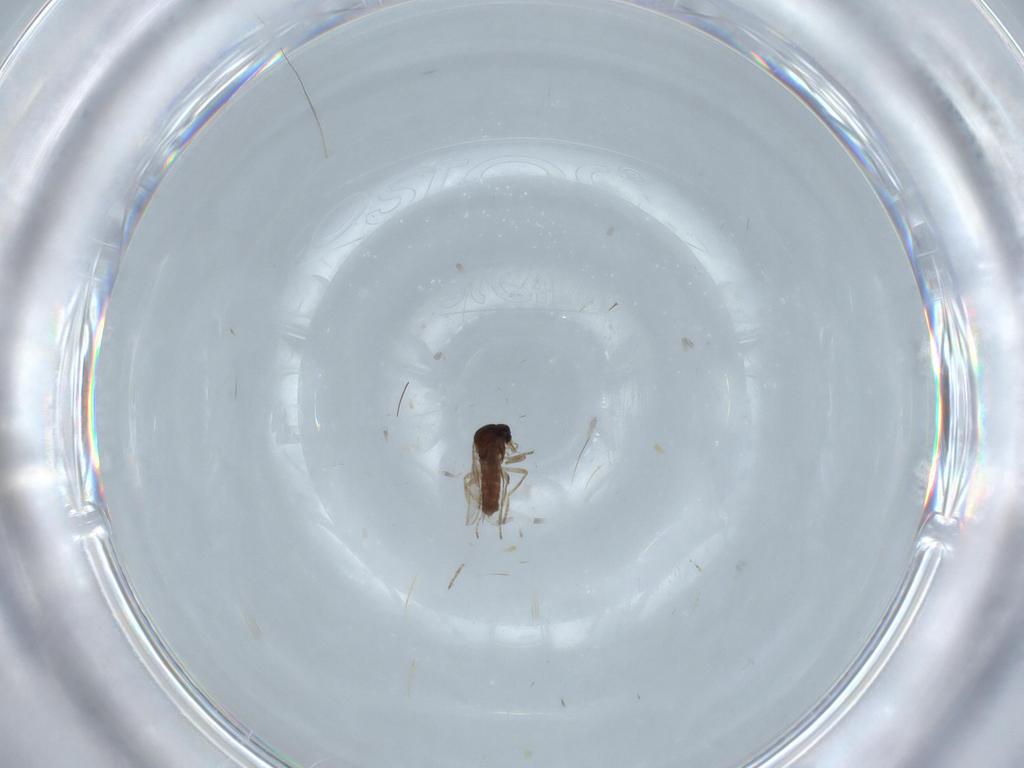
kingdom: Animalia
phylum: Arthropoda
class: Insecta
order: Diptera
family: Ceratopogonidae
